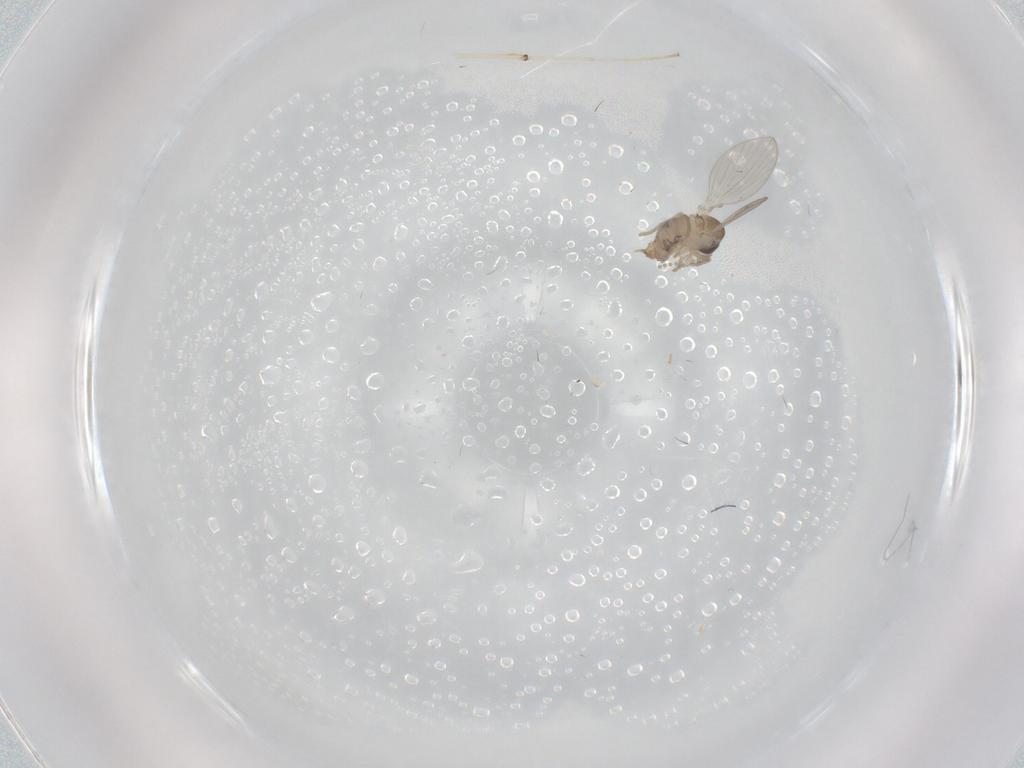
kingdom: Animalia
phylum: Arthropoda
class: Insecta
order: Diptera
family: Psychodidae
